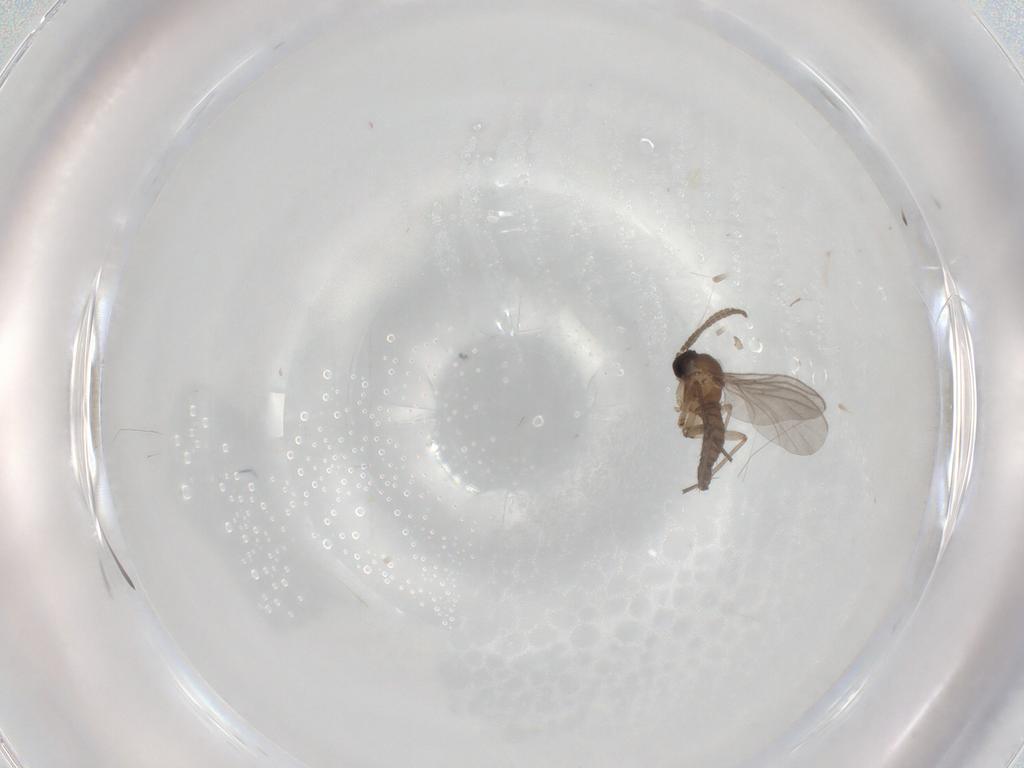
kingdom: Animalia
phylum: Arthropoda
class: Insecta
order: Diptera
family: Sciaridae
